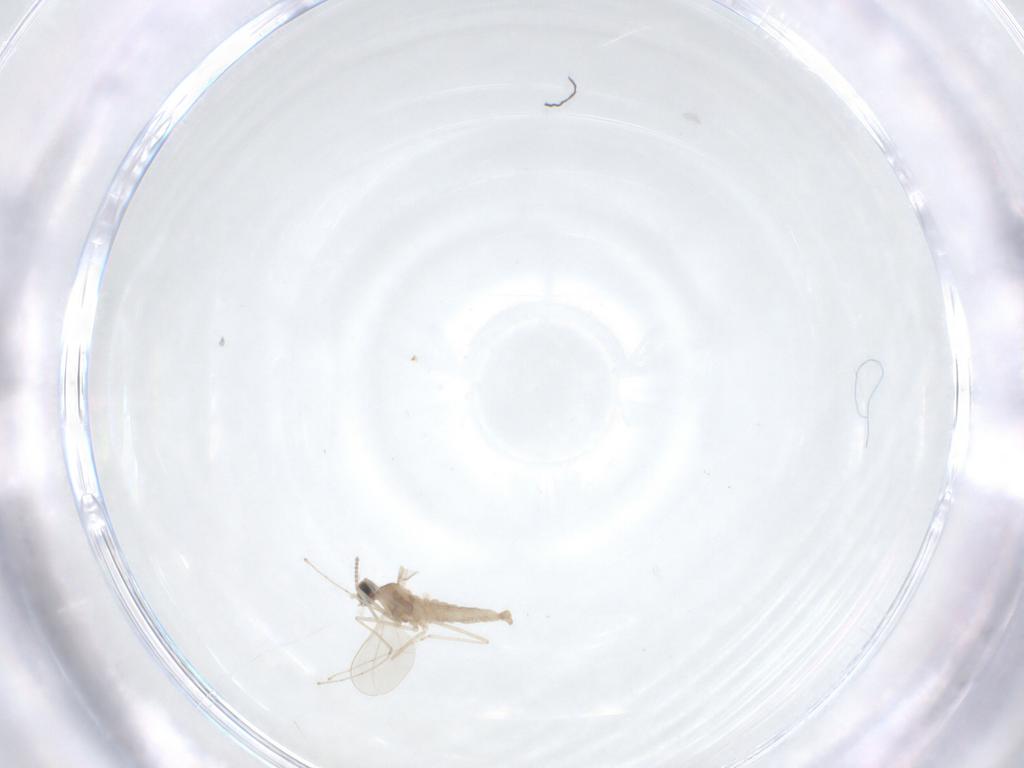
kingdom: Animalia
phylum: Arthropoda
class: Insecta
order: Diptera
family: Cecidomyiidae
